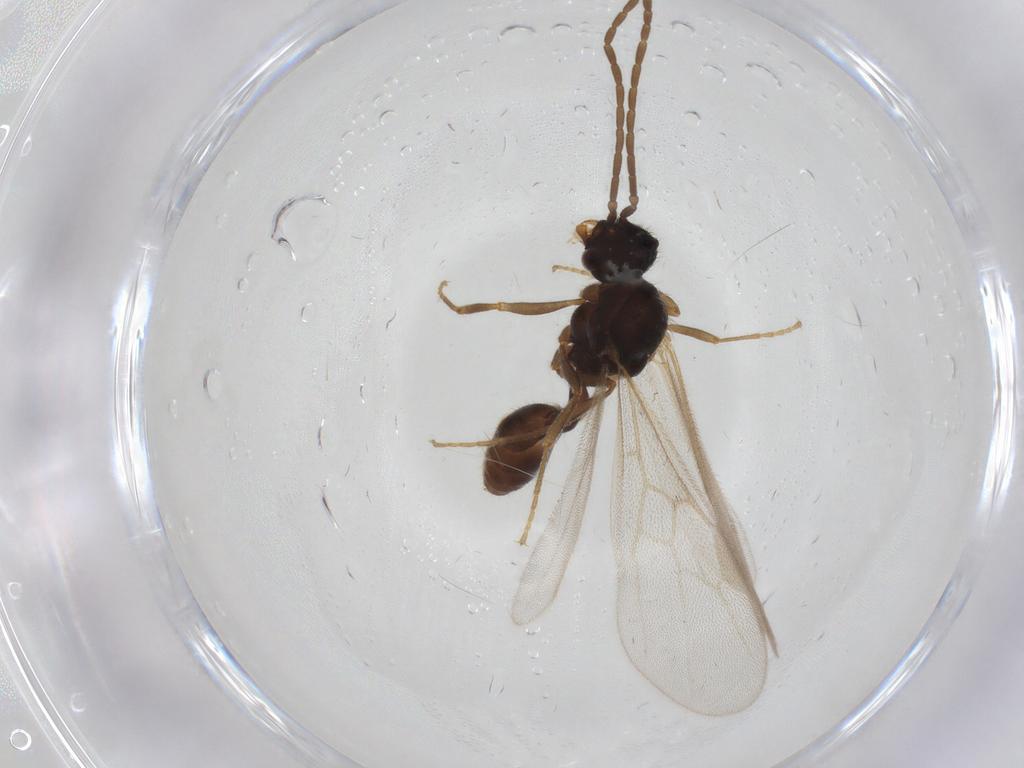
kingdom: Animalia
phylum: Arthropoda
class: Insecta
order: Hymenoptera
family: Formicidae
